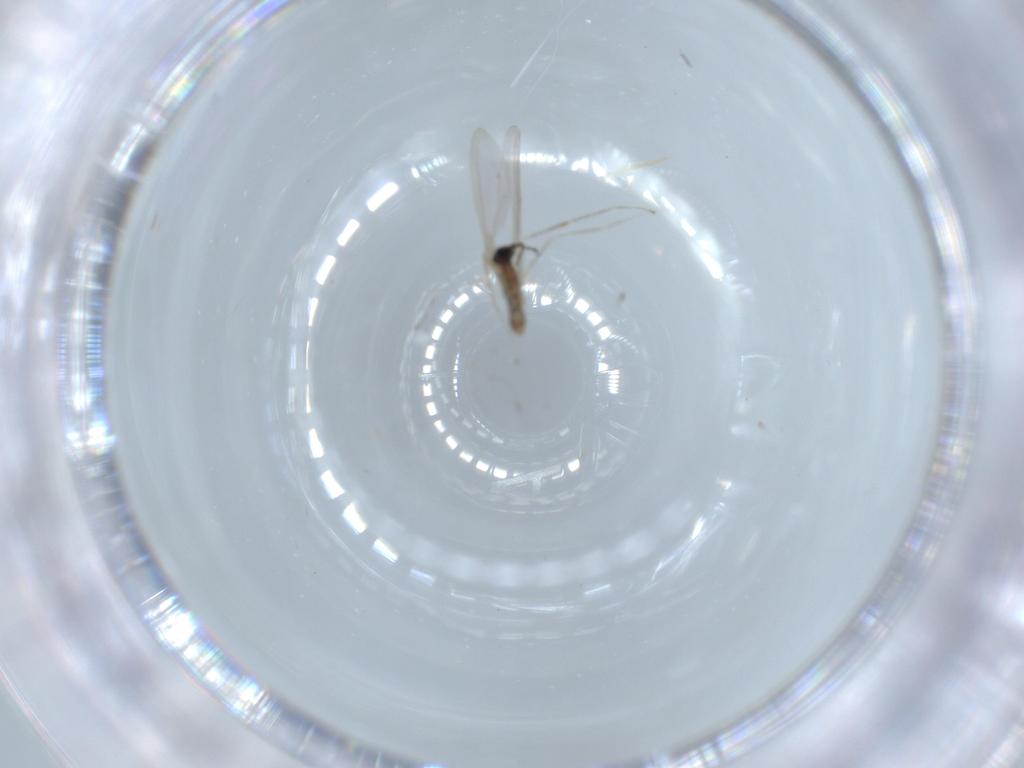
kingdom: Animalia
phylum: Arthropoda
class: Insecta
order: Diptera
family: Cecidomyiidae
